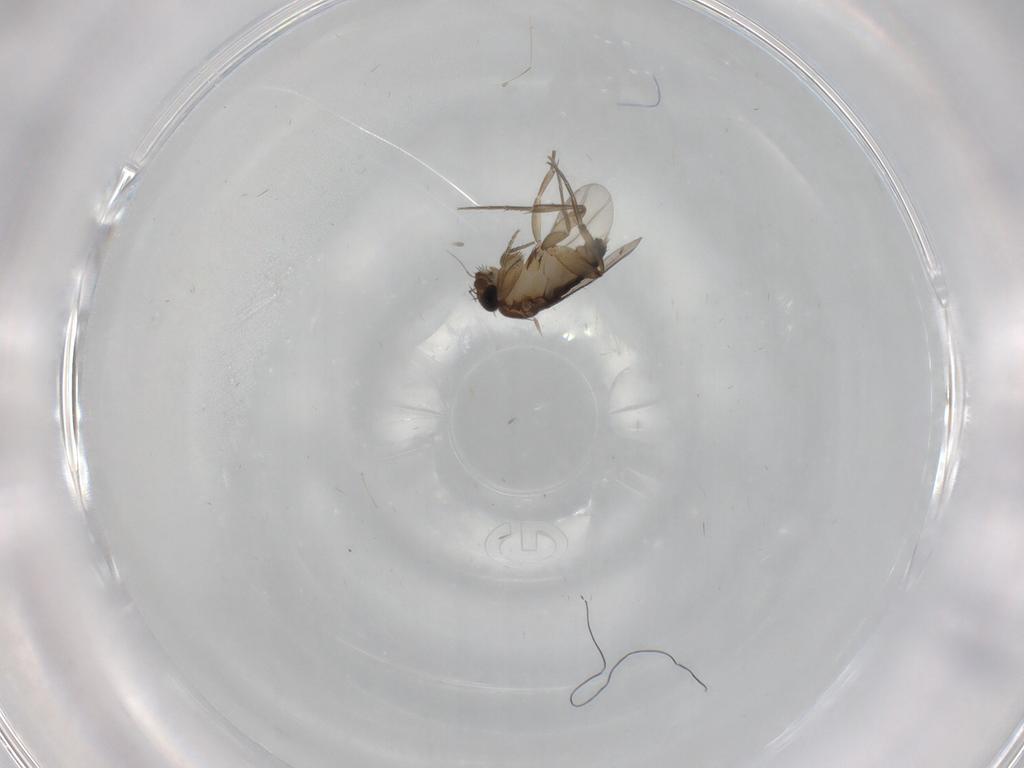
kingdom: Animalia
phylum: Arthropoda
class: Insecta
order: Diptera
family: Phoridae
